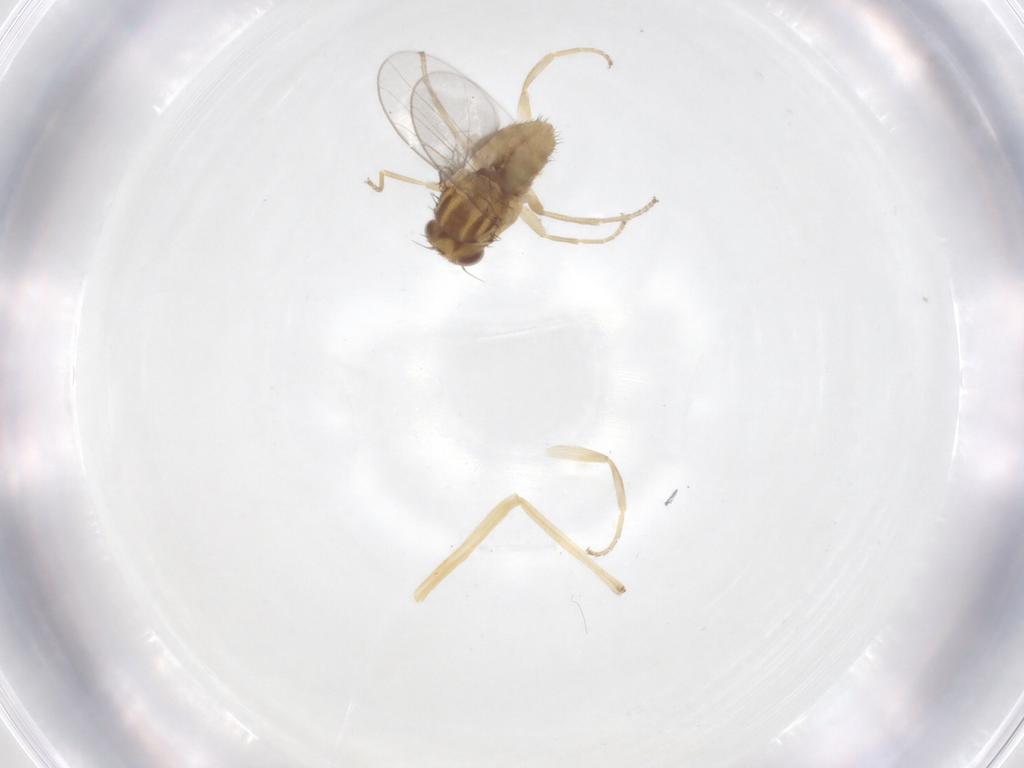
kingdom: Animalia
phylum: Arthropoda
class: Insecta
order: Diptera
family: Chloropidae
